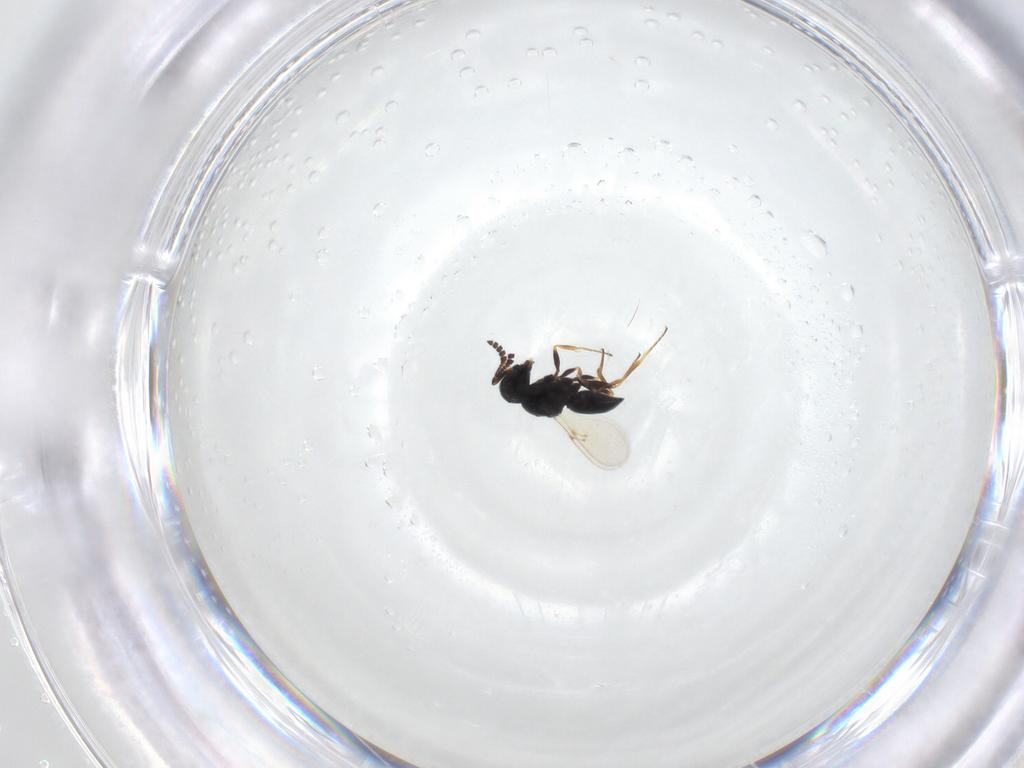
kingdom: Animalia
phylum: Arthropoda
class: Insecta
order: Hymenoptera
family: Scelionidae
